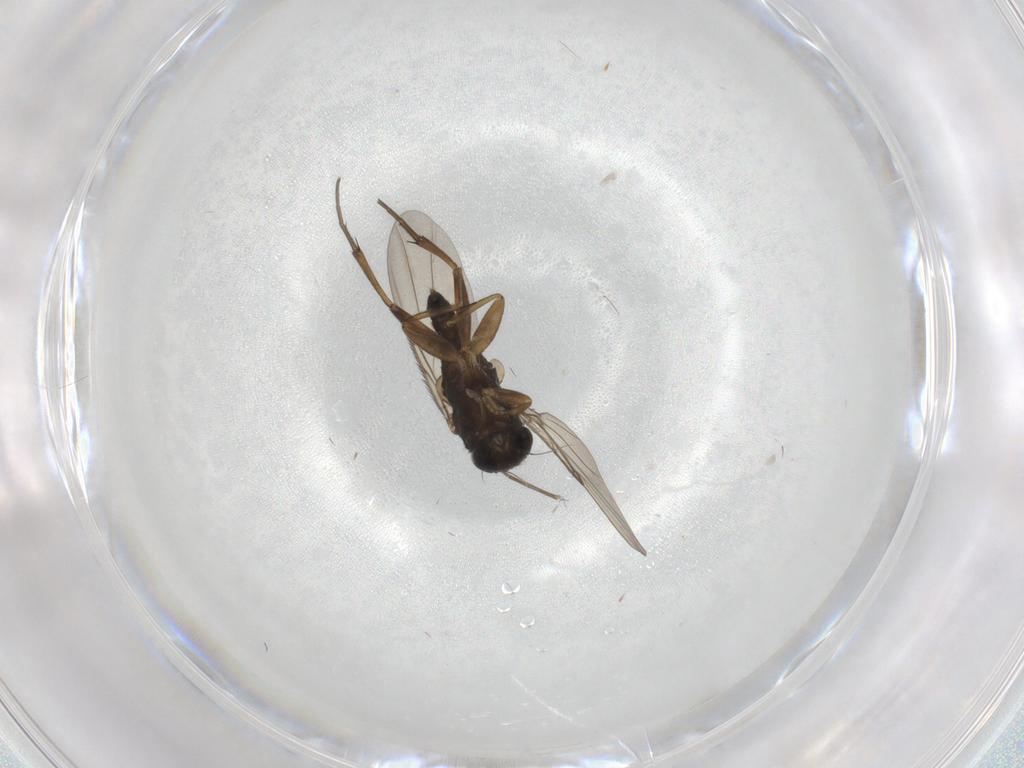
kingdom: Animalia
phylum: Arthropoda
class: Insecta
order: Diptera
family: Phoridae
